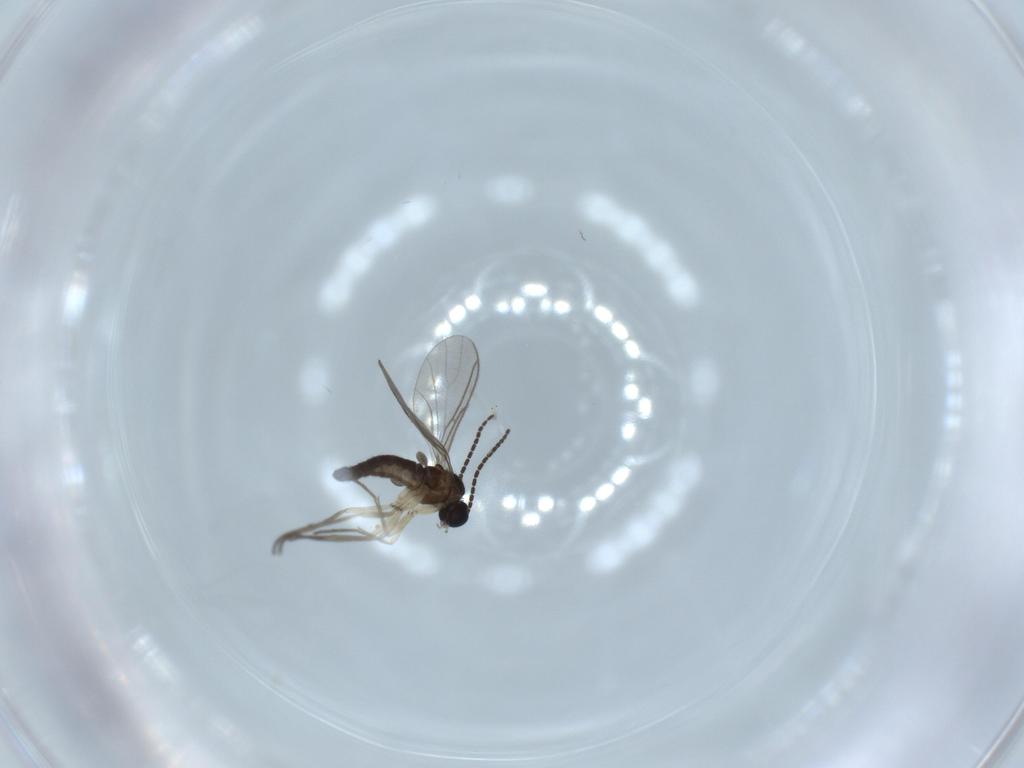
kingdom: Animalia
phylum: Arthropoda
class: Insecta
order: Diptera
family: Sciaridae
